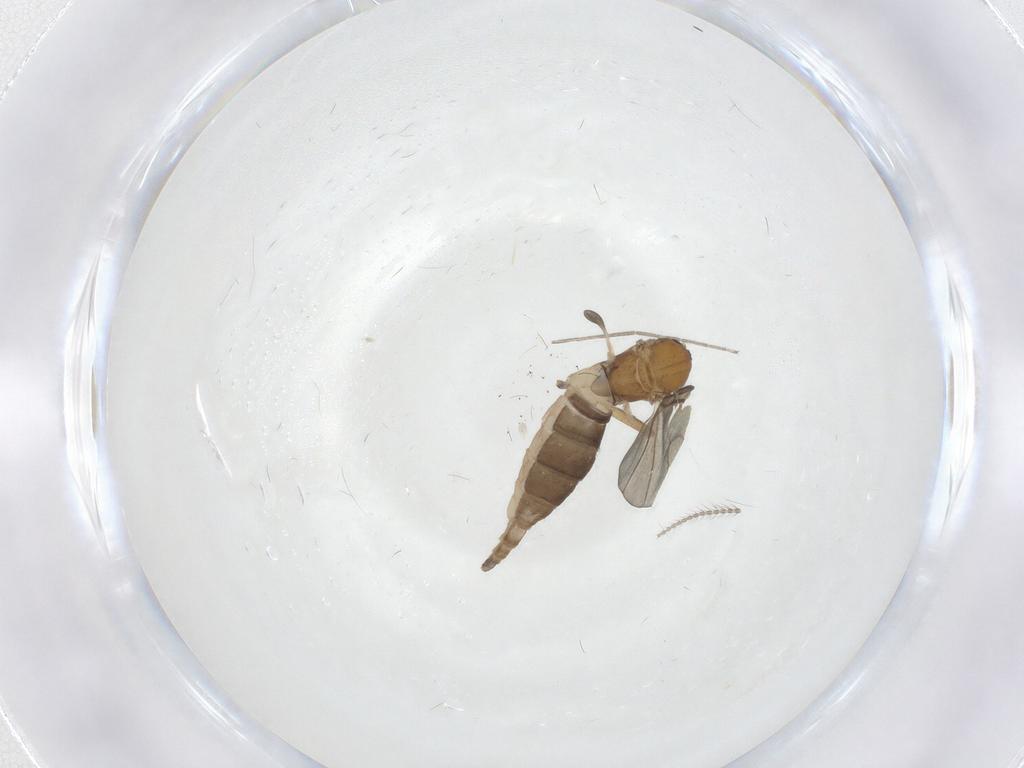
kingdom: Animalia
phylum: Arthropoda
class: Insecta
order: Diptera
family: Sciaridae
